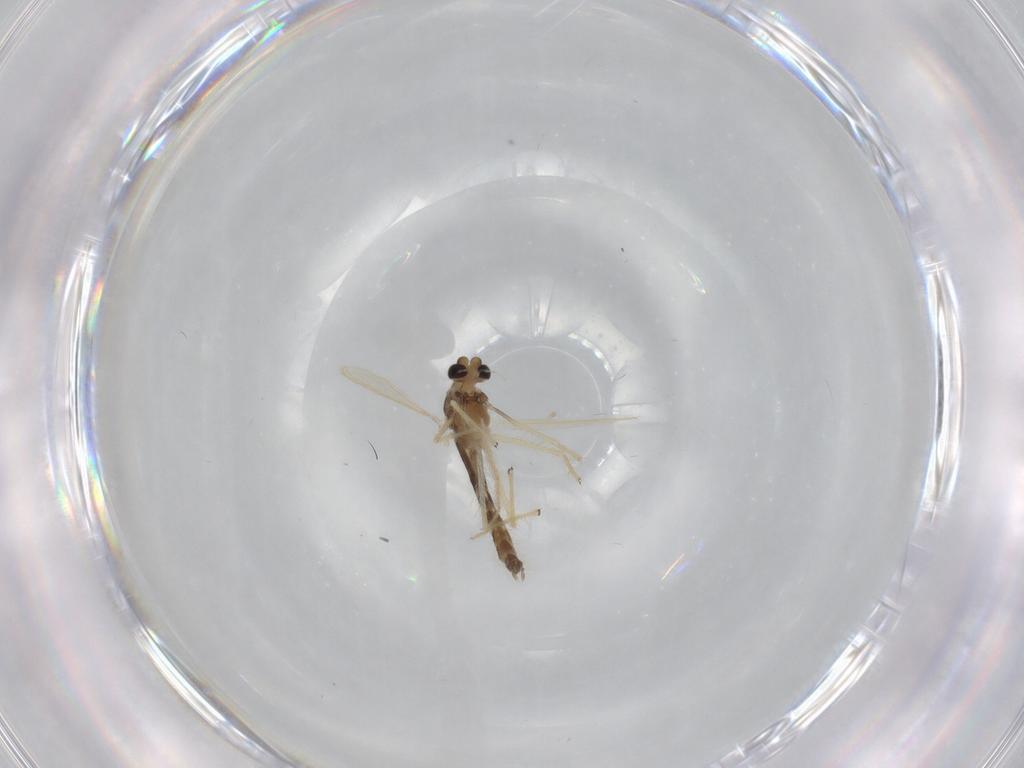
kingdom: Animalia
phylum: Arthropoda
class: Insecta
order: Diptera
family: Chironomidae
